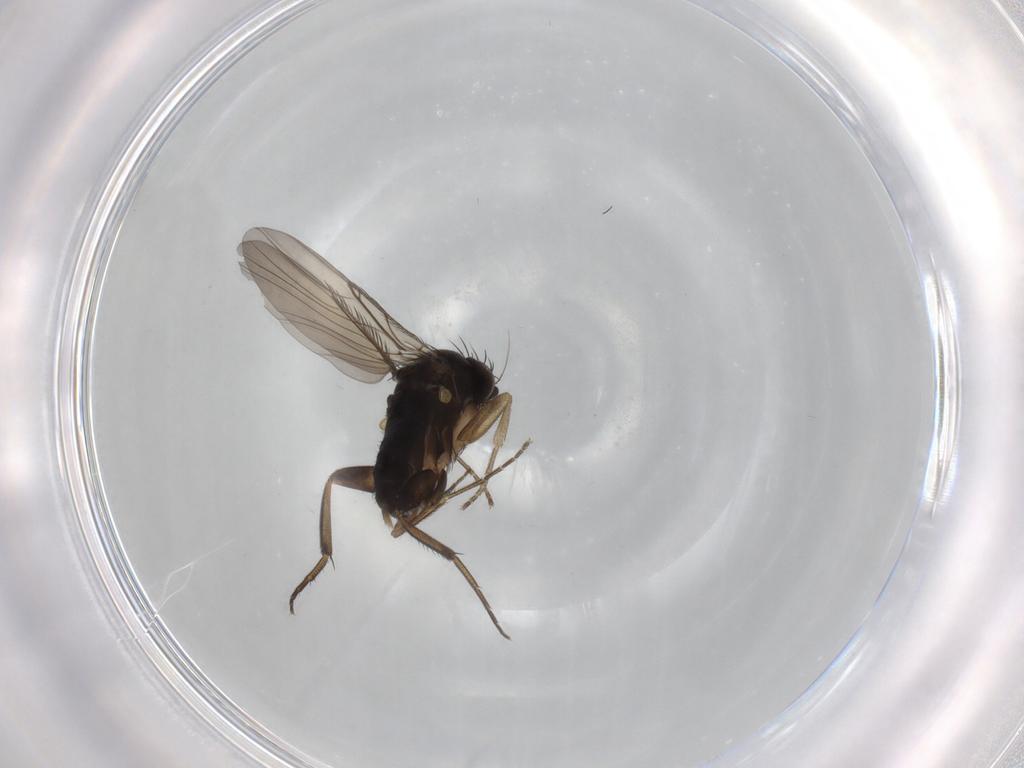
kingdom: Animalia
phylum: Arthropoda
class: Insecta
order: Diptera
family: Phoridae
